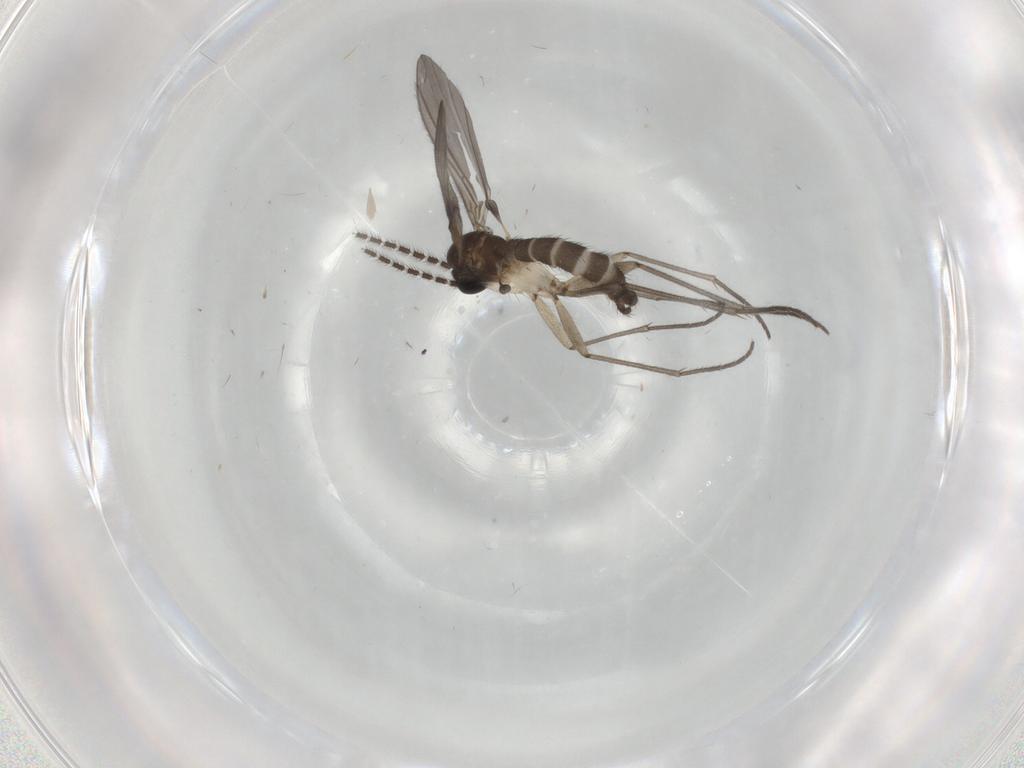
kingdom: Animalia
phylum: Arthropoda
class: Insecta
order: Diptera
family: Sciaridae
